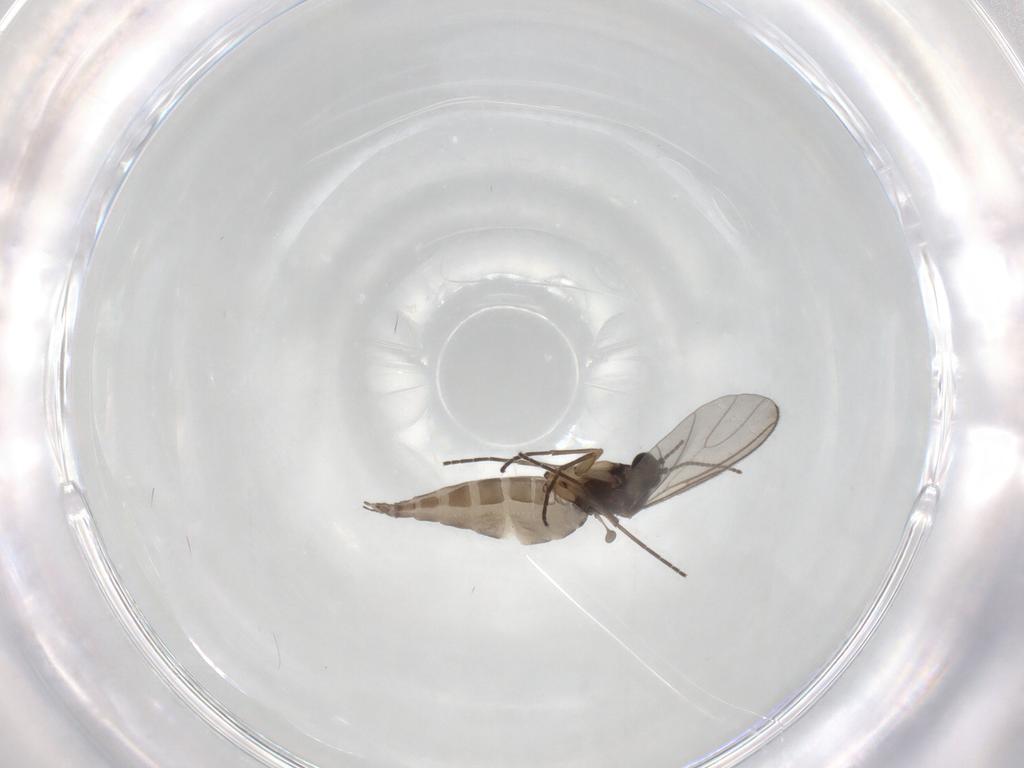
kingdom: Animalia
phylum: Arthropoda
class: Insecta
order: Diptera
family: Sciaridae
